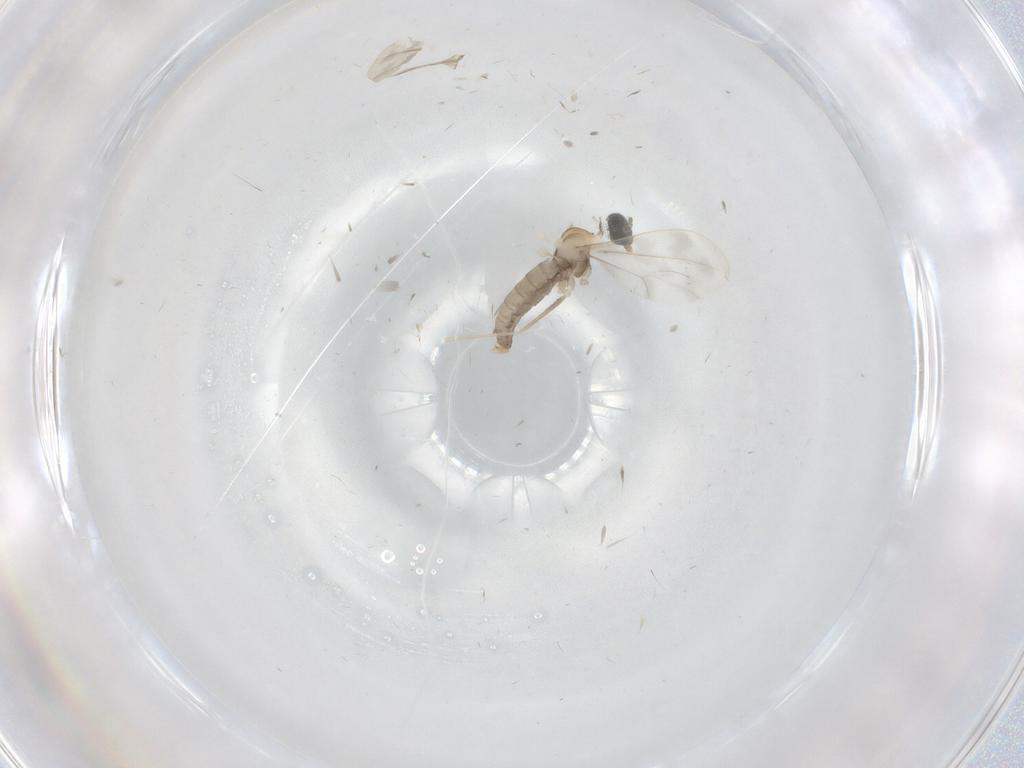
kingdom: Animalia
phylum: Arthropoda
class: Insecta
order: Diptera
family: Cecidomyiidae
